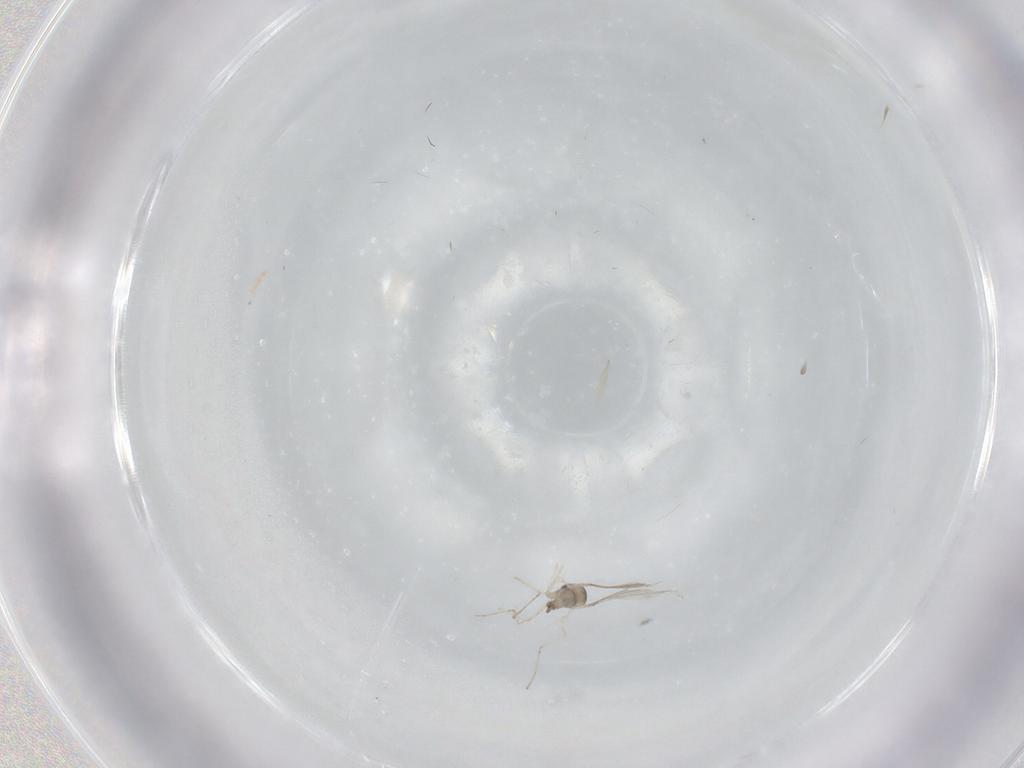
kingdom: Animalia
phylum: Arthropoda
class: Insecta
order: Diptera
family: Cecidomyiidae
